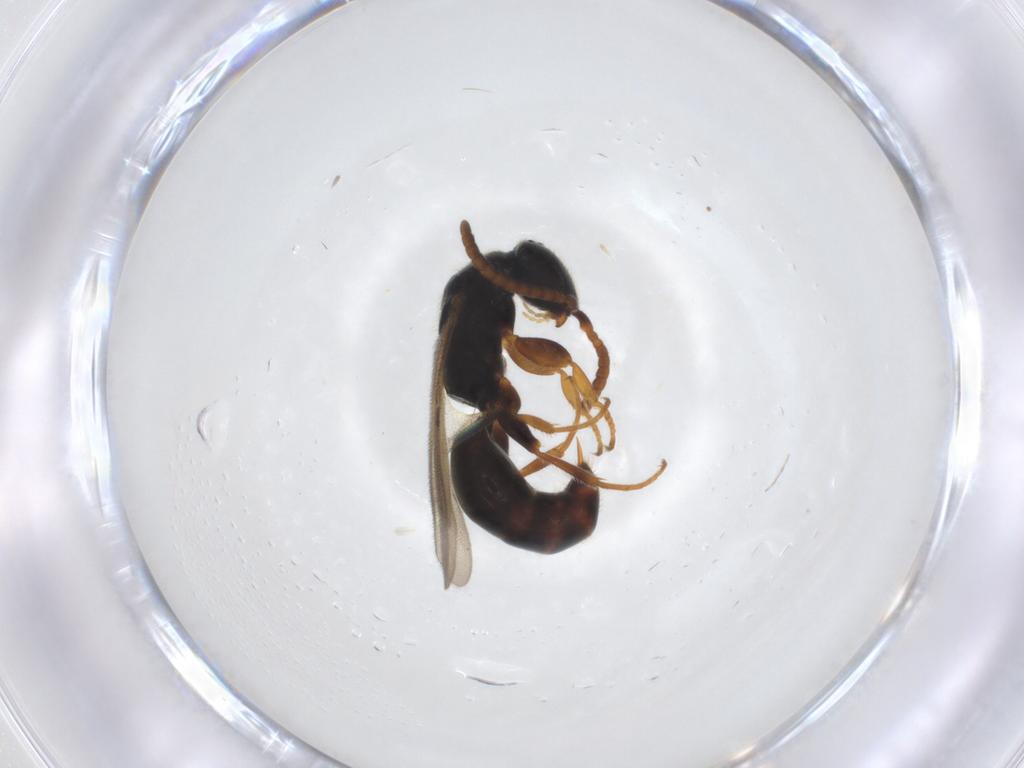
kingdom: Animalia
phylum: Arthropoda
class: Insecta
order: Hymenoptera
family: Bethylidae
